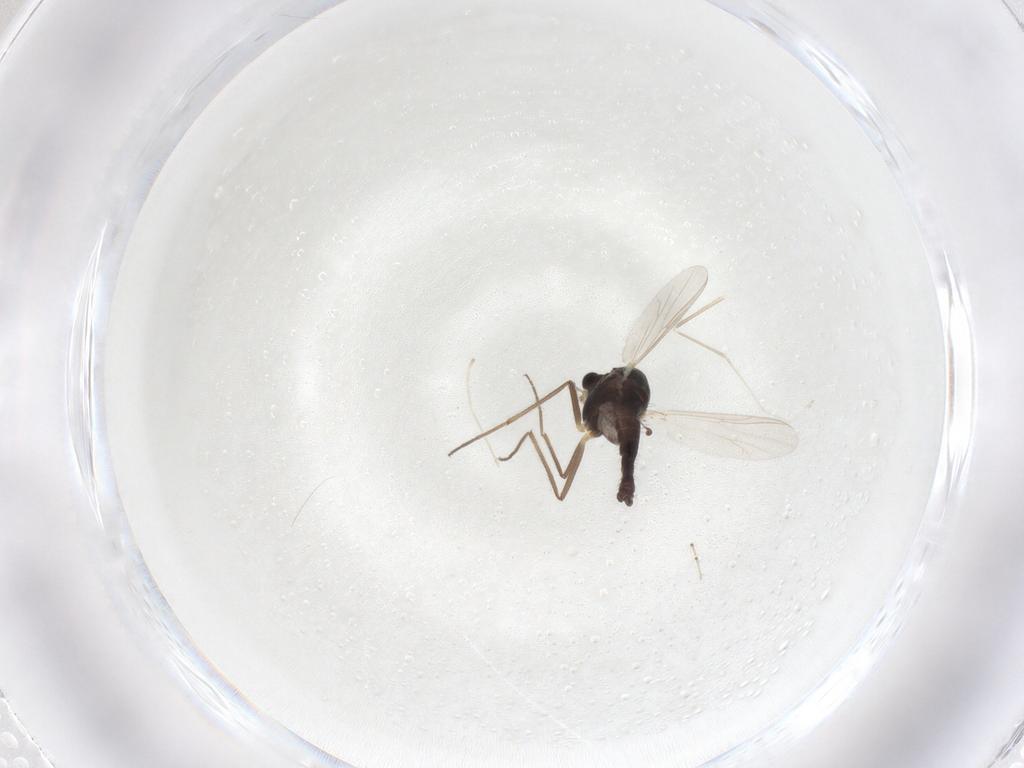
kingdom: Animalia
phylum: Arthropoda
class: Insecta
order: Diptera
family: Chironomidae
